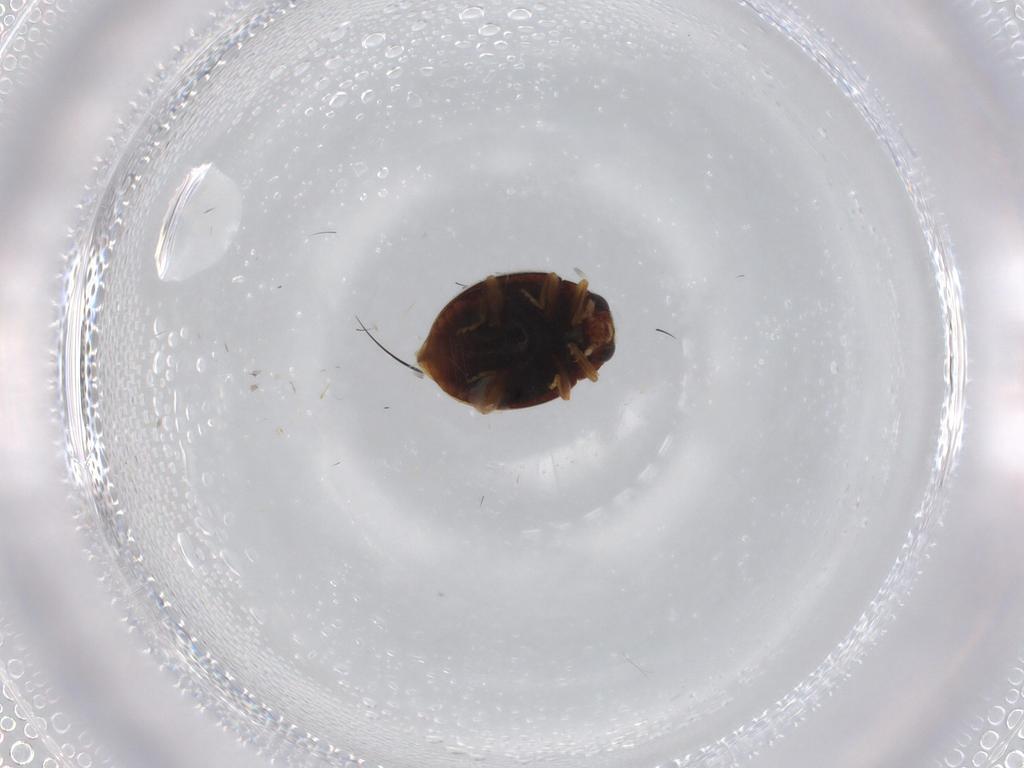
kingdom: Animalia
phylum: Arthropoda
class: Insecta
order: Coleoptera
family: Coccinellidae
